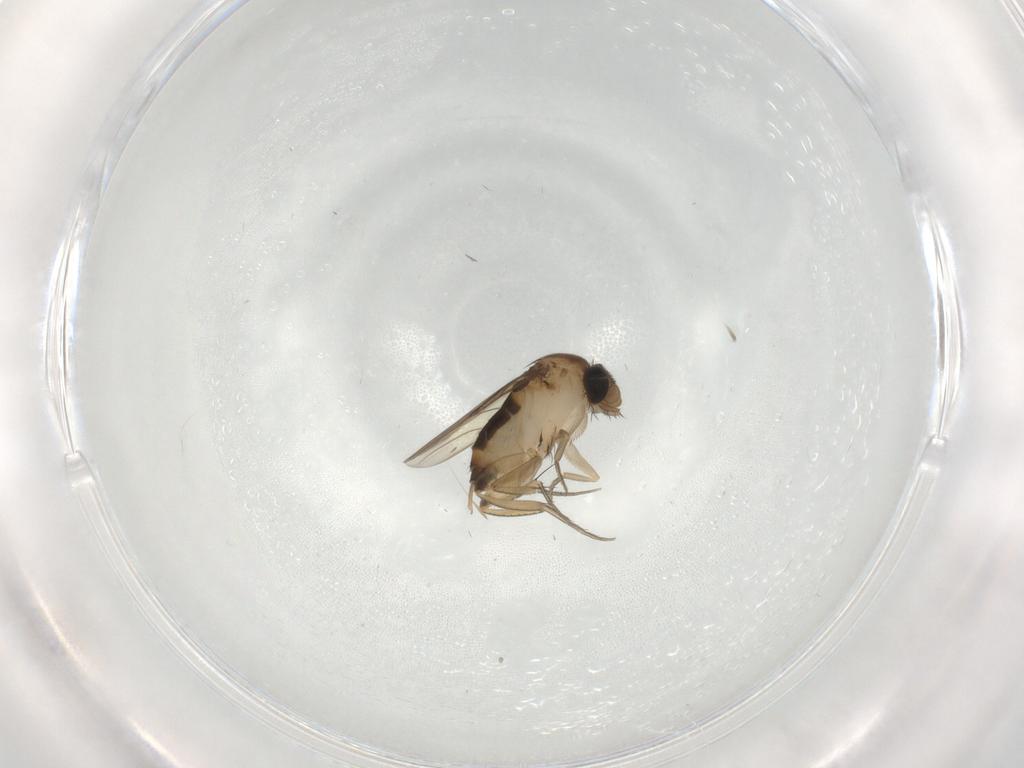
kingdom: Animalia
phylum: Arthropoda
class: Insecta
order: Diptera
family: Phoridae
